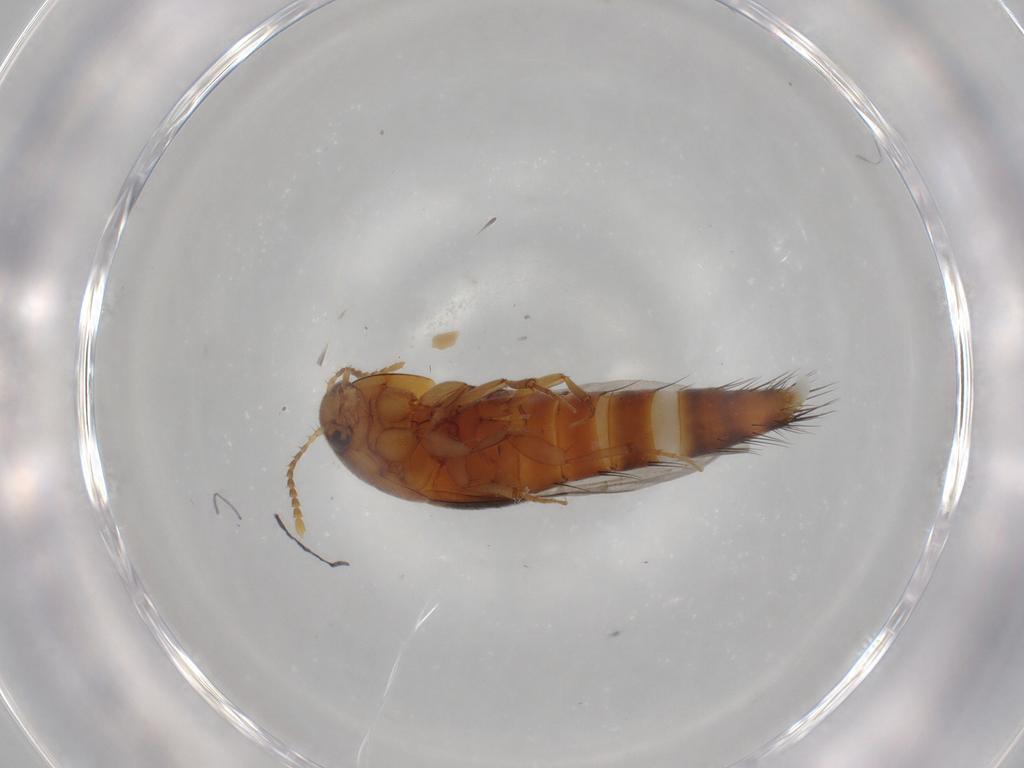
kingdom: Animalia
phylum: Arthropoda
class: Insecta
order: Coleoptera
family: Staphylinidae
